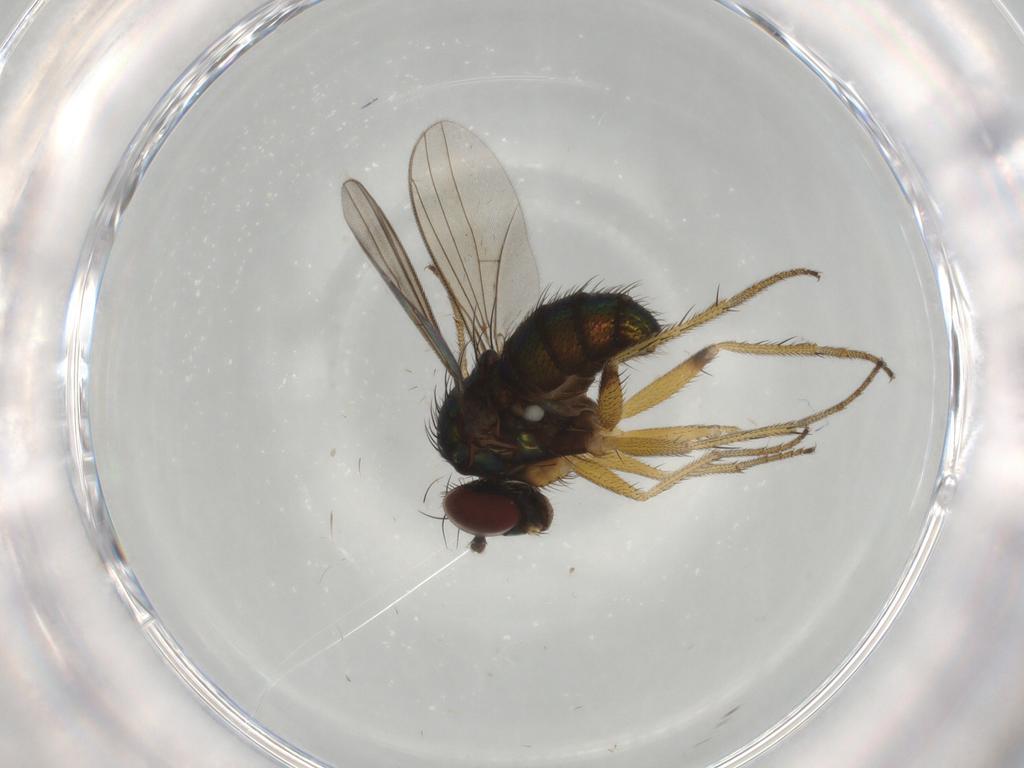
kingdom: Animalia
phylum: Arthropoda
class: Insecta
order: Diptera
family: Dolichopodidae
